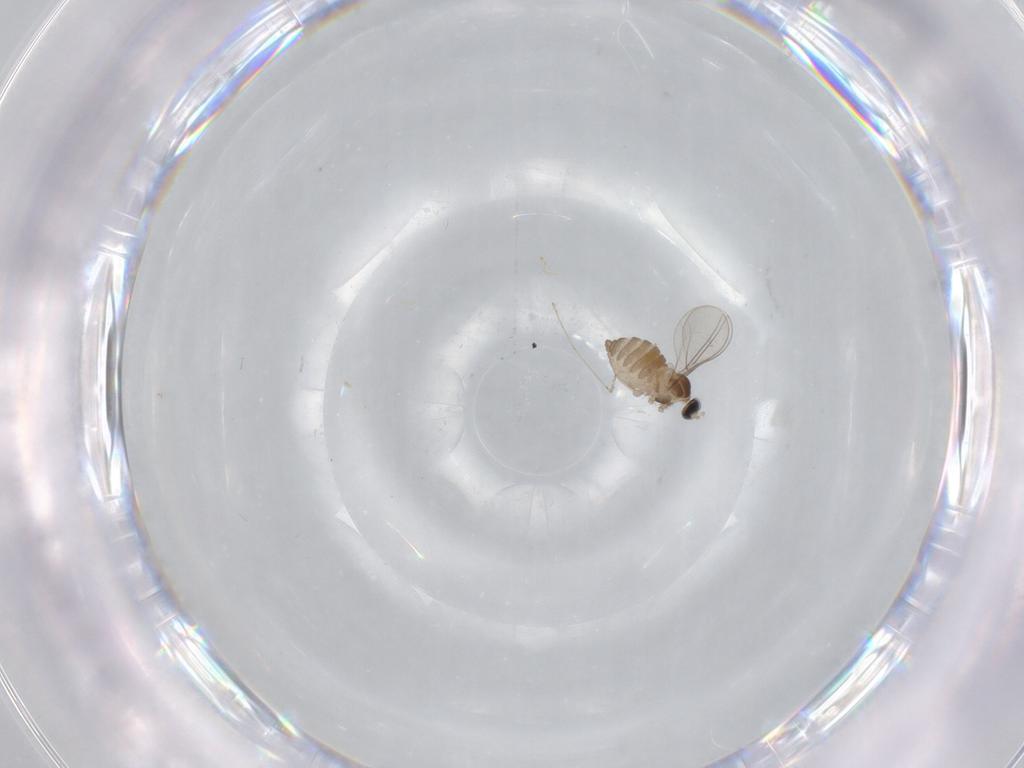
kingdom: Animalia
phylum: Arthropoda
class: Insecta
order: Diptera
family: Cecidomyiidae
